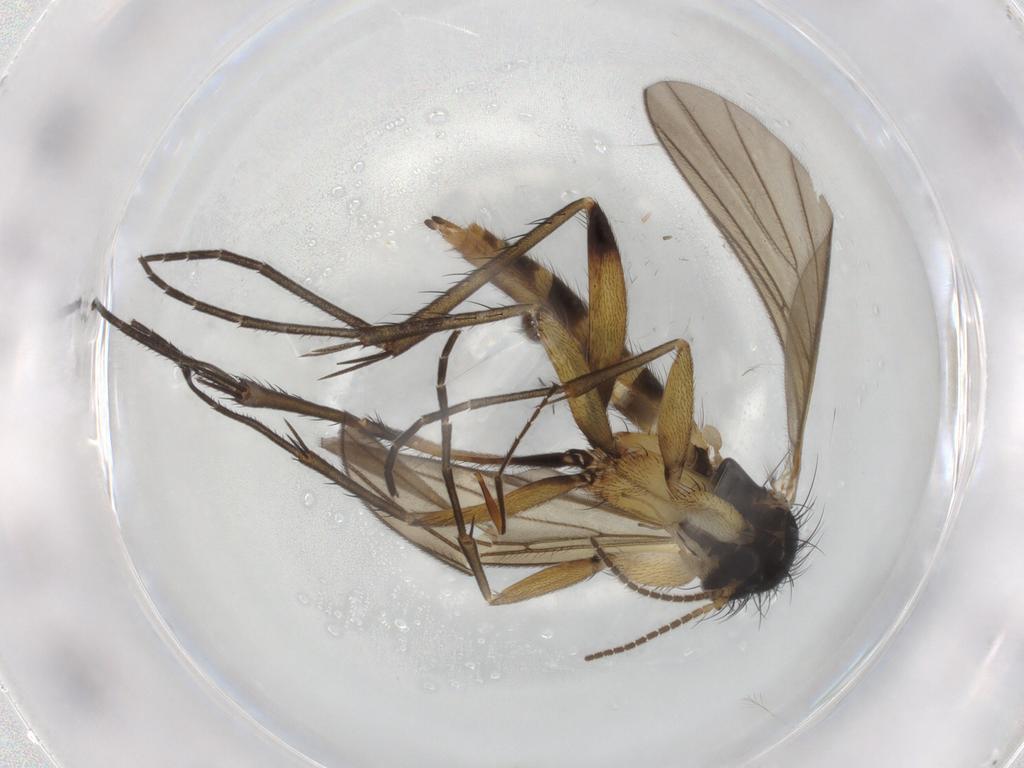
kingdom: Animalia
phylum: Arthropoda
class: Insecta
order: Diptera
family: Mycetophilidae
